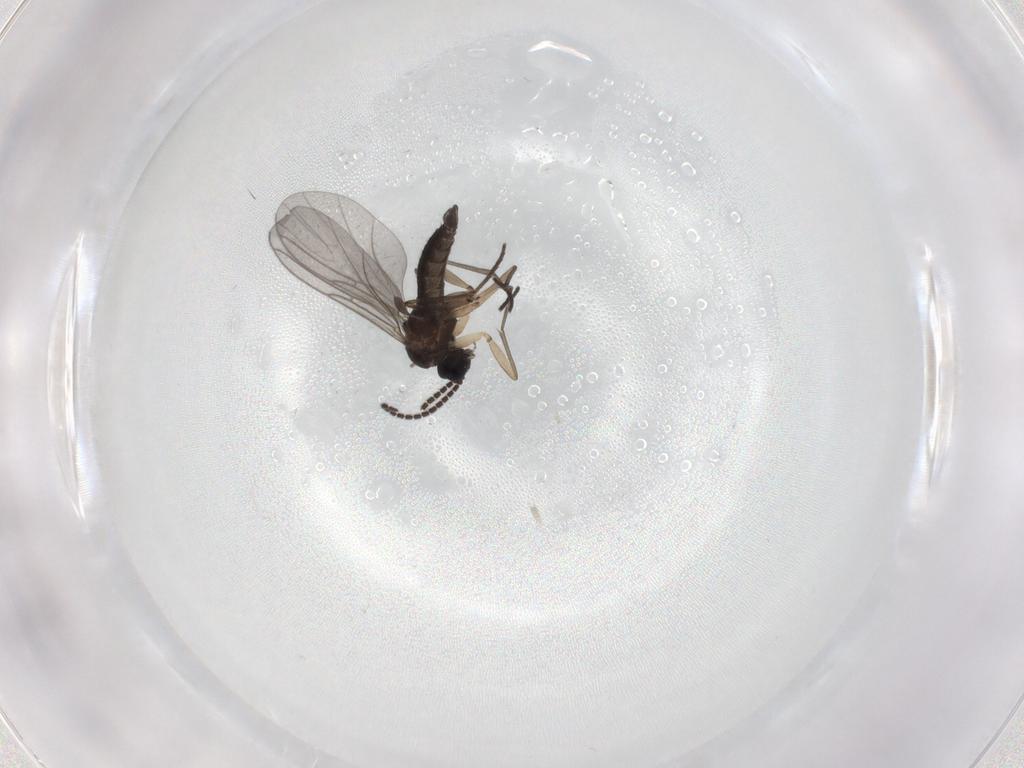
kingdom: Animalia
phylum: Arthropoda
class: Insecta
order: Diptera
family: Sciaridae
